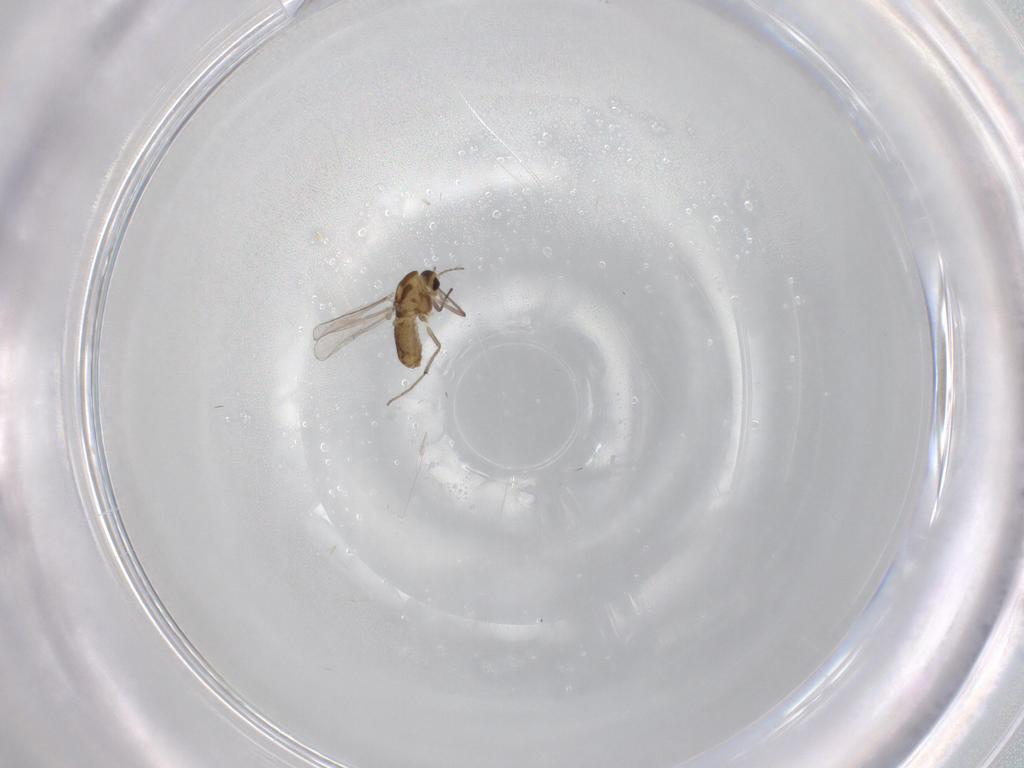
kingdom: Animalia
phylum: Arthropoda
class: Insecta
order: Diptera
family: Chironomidae
